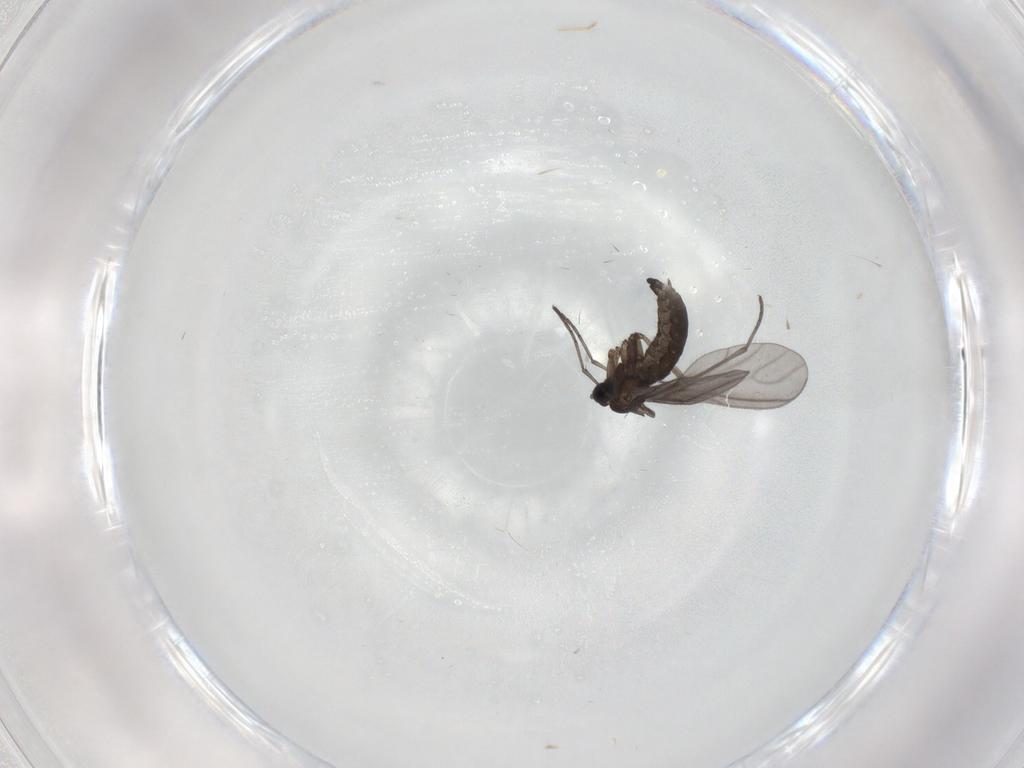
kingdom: Animalia
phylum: Arthropoda
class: Insecta
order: Diptera
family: Sciaridae
